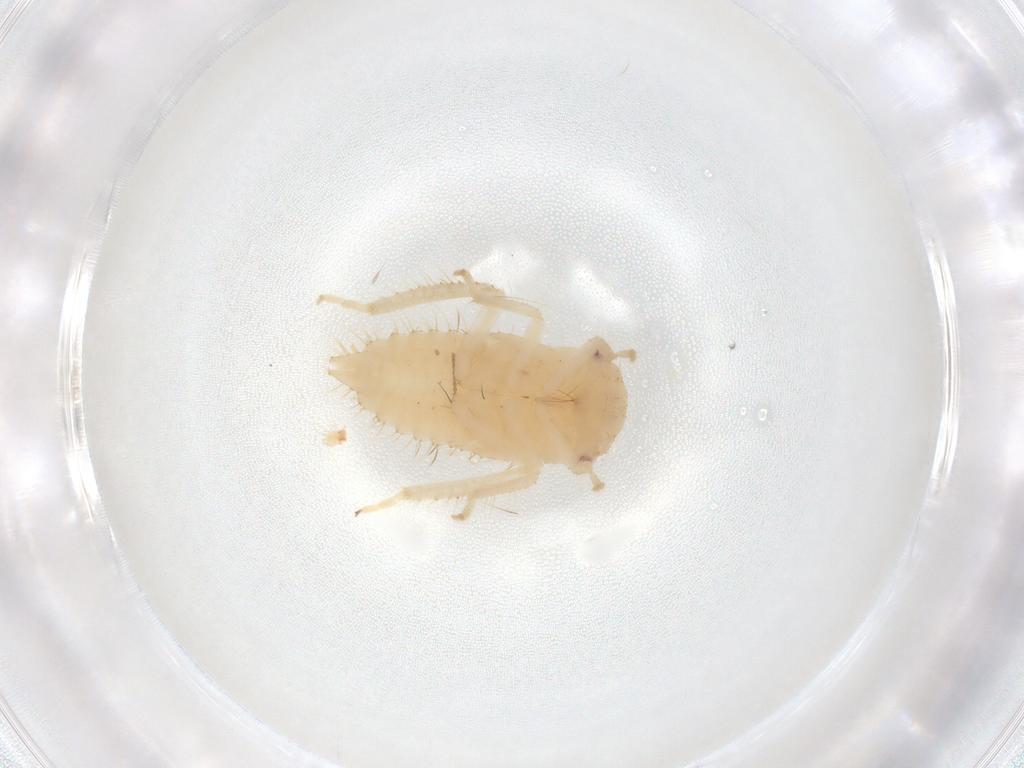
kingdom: Animalia
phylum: Arthropoda
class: Insecta
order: Hemiptera
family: Cicadellidae
